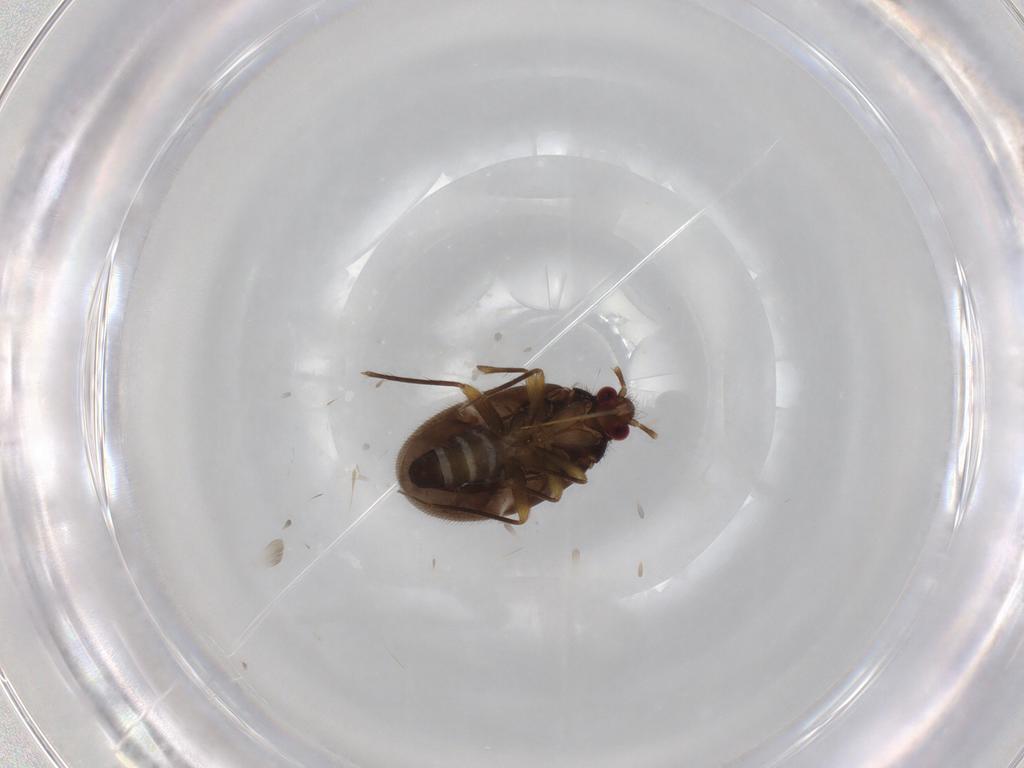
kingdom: Animalia
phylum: Arthropoda
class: Insecta
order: Hemiptera
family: Ceratocombidae
